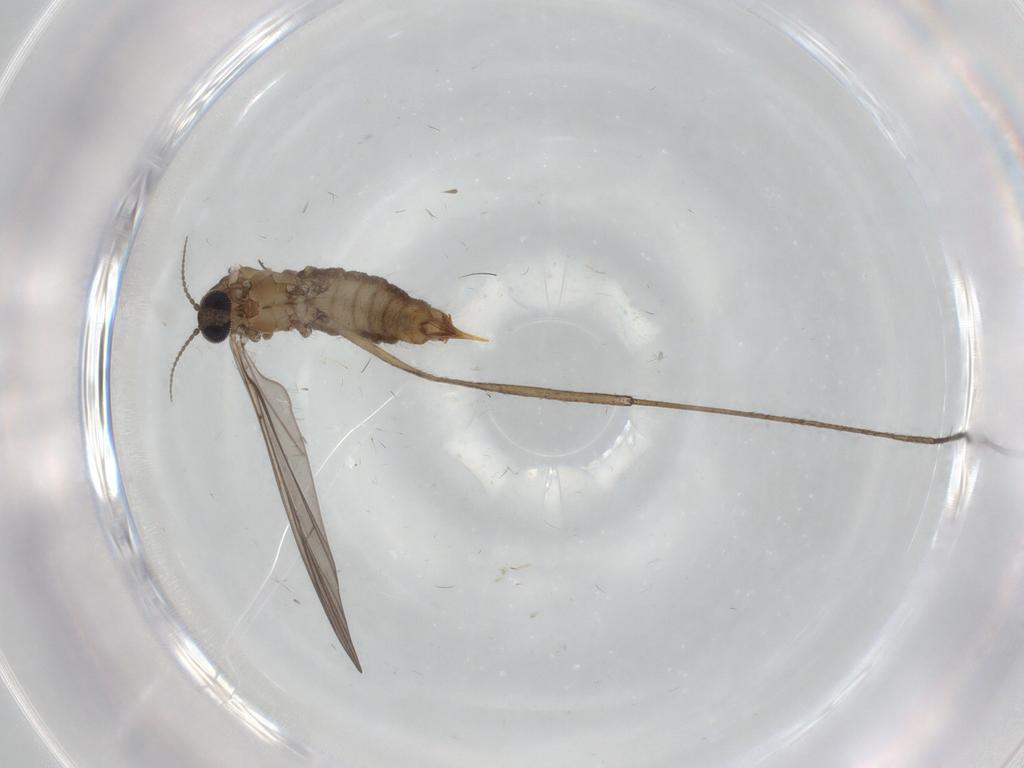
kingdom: Animalia
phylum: Arthropoda
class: Insecta
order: Diptera
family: Limoniidae
